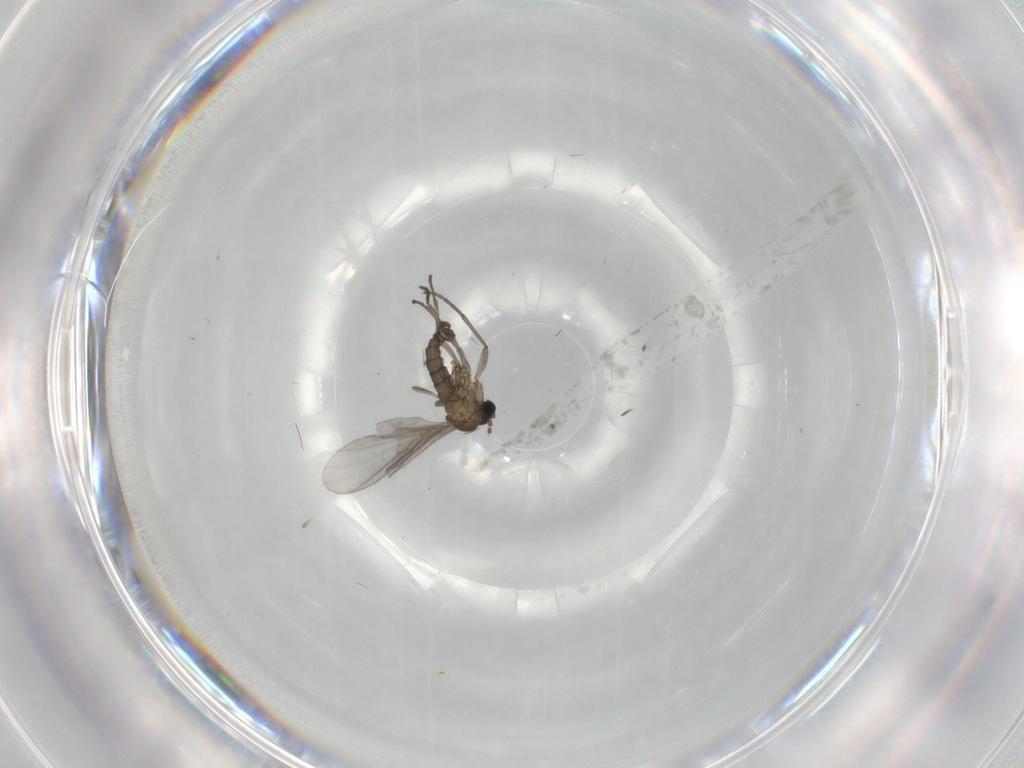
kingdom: Animalia
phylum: Arthropoda
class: Insecta
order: Diptera
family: Sciaridae
